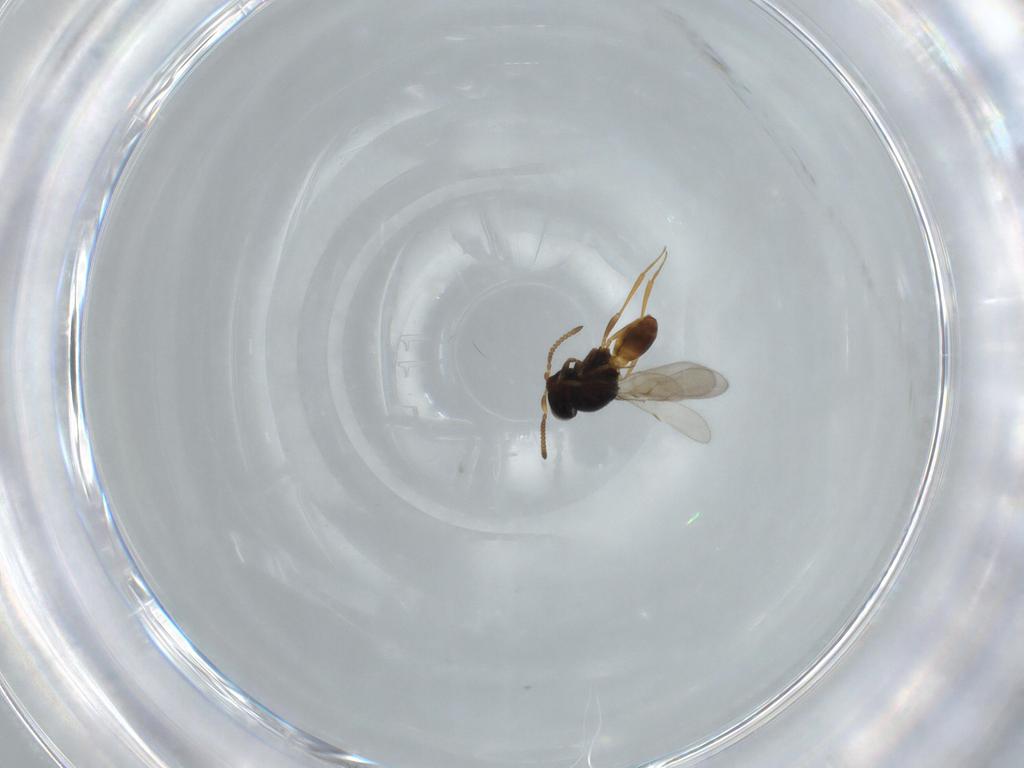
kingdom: Animalia
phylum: Arthropoda
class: Insecta
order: Hymenoptera
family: Scelionidae
